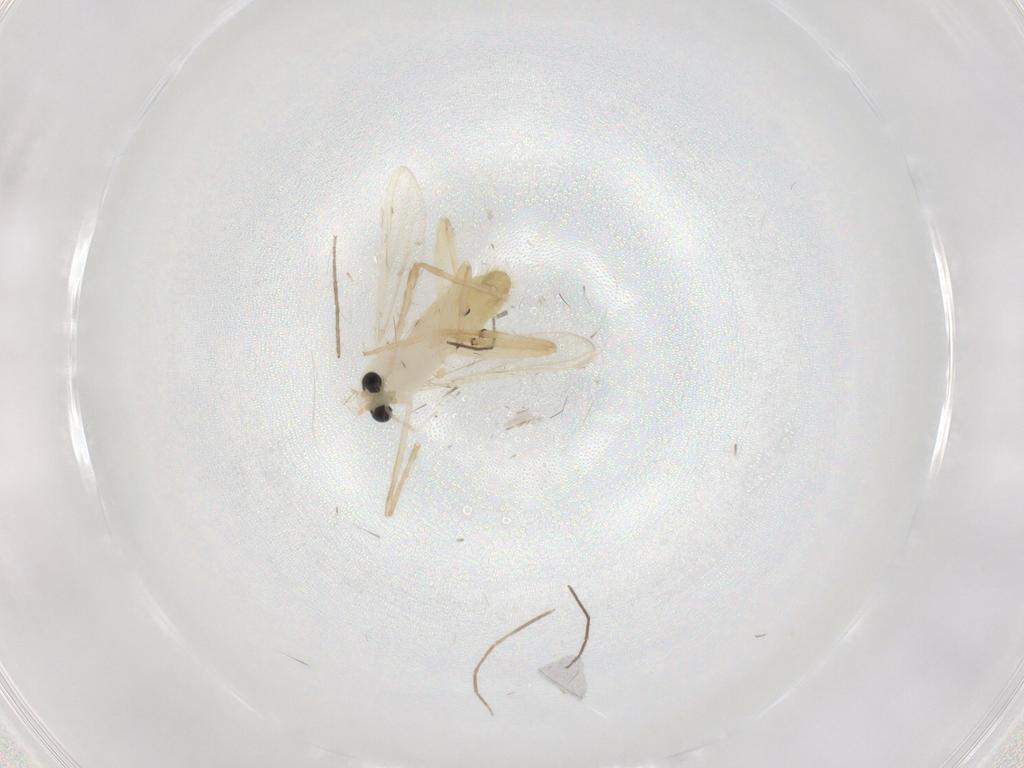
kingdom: Animalia
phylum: Arthropoda
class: Insecta
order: Diptera
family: Chironomidae
